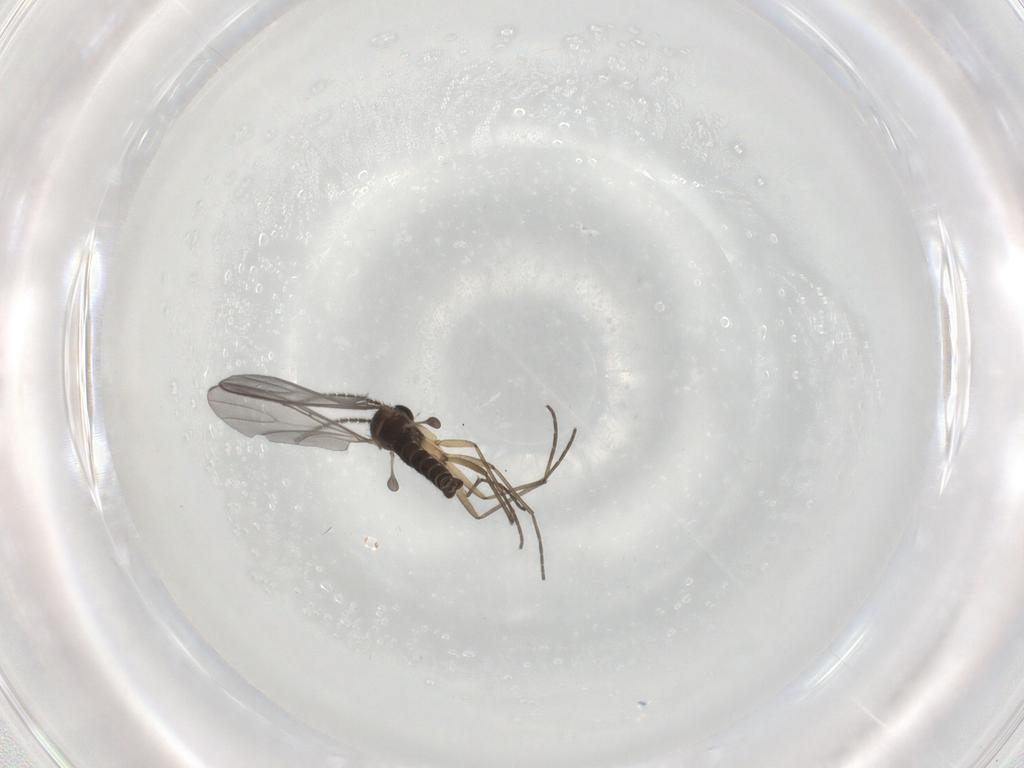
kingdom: Animalia
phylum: Arthropoda
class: Insecta
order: Diptera
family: Sciaridae
